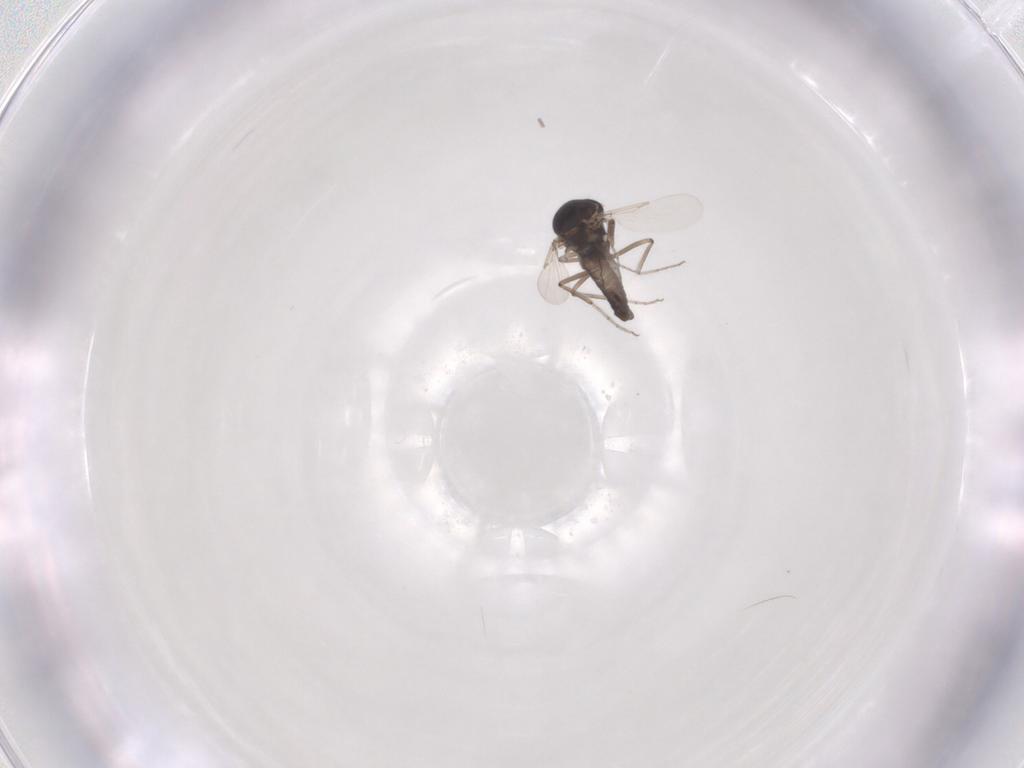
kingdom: Animalia
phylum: Arthropoda
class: Insecta
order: Diptera
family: Ceratopogonidae
